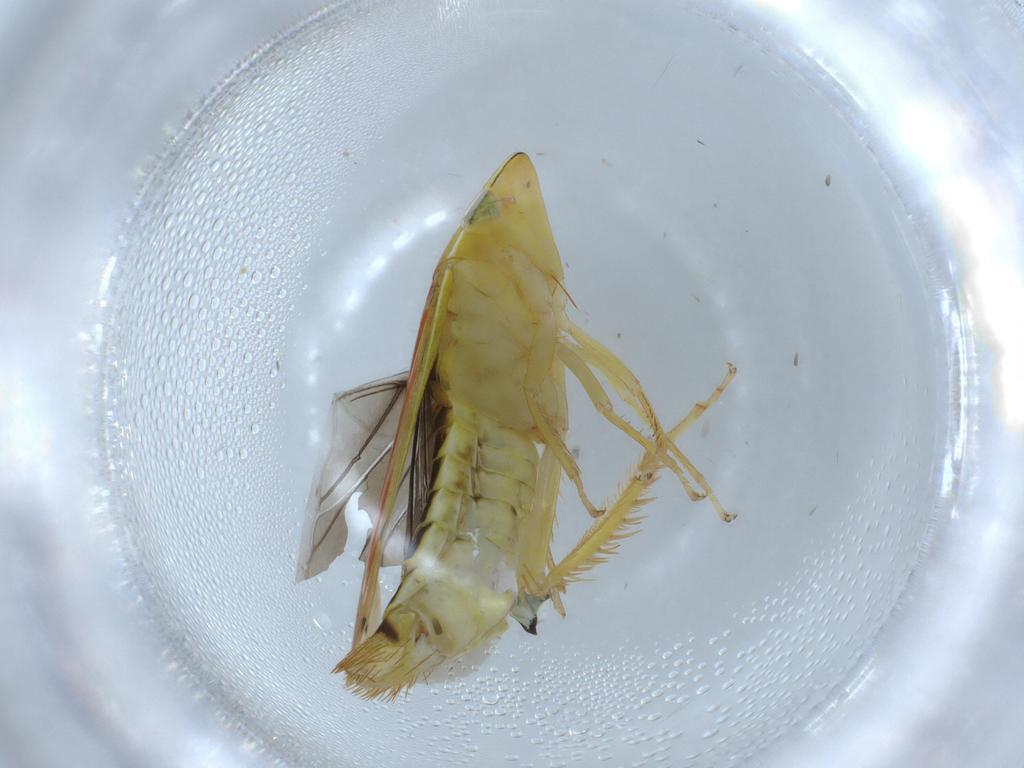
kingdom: Animalia
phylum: Arthropoda
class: Insecta
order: Hemiptera
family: Cicadellidae
